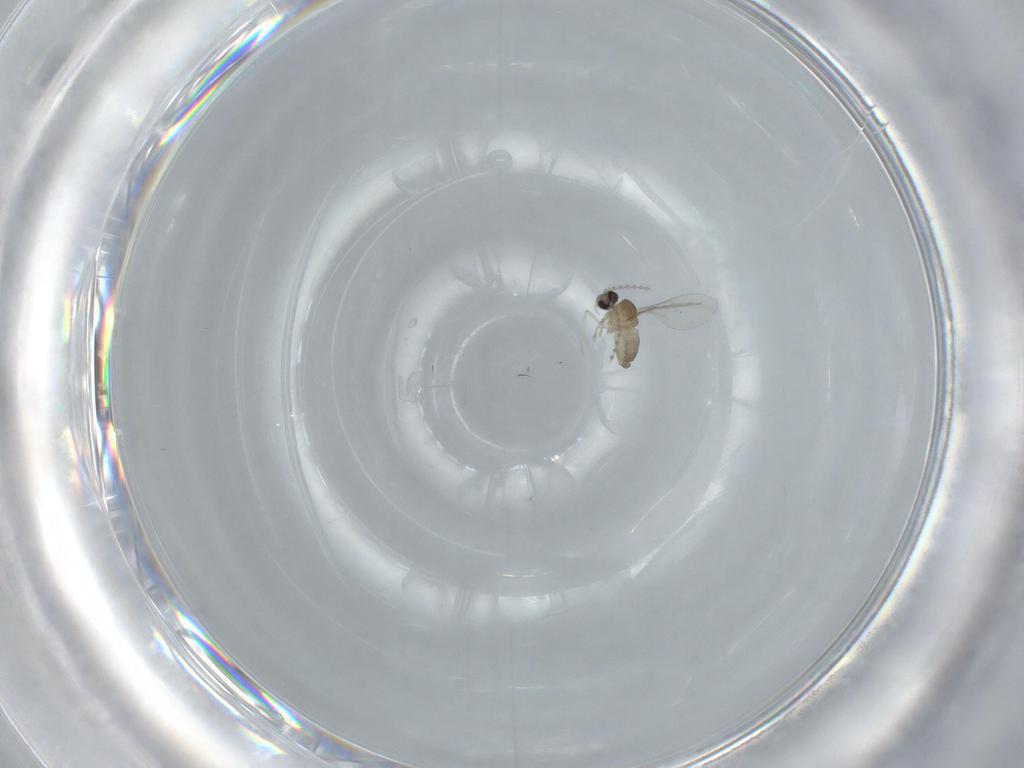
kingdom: Animalia
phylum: Arthropoda
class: Insecta
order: Diptera
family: Cecidomyiidae
